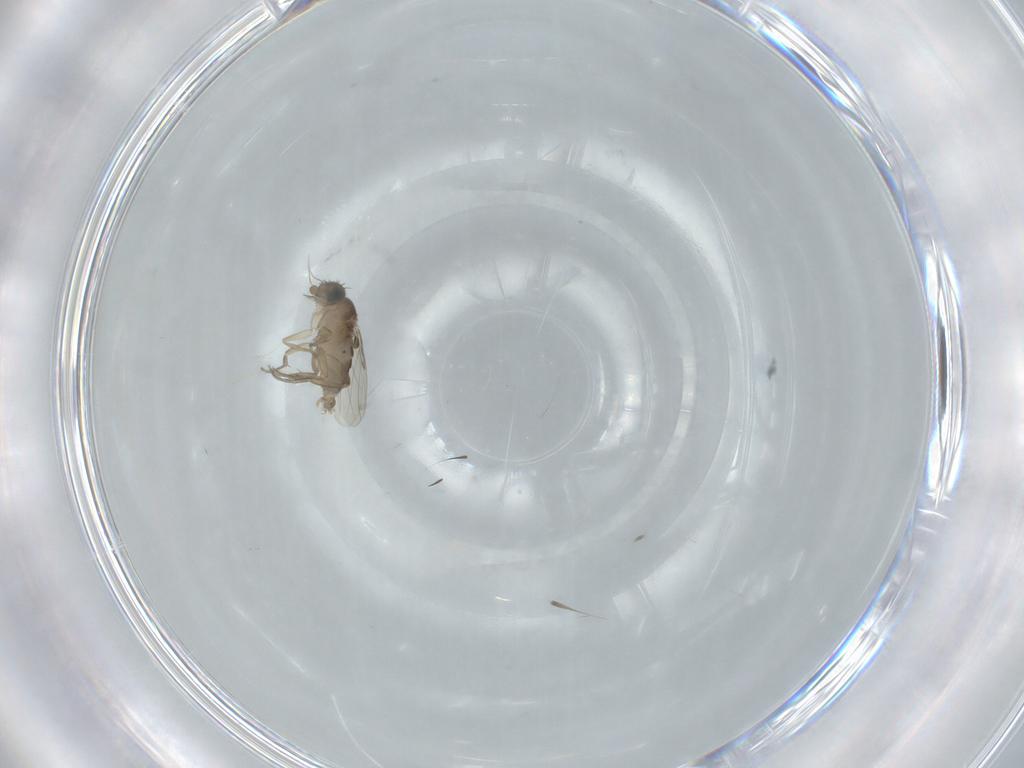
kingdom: Animalia
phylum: Arthropoda
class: Insecta
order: Diptera
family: Phoridae
